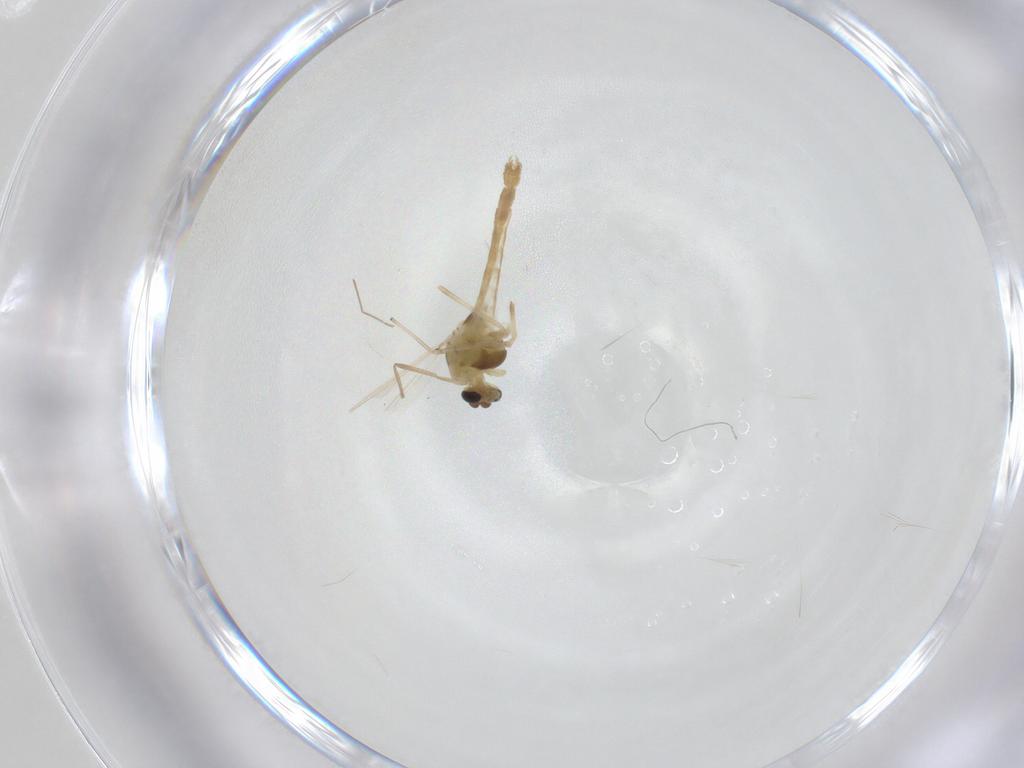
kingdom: Animalia
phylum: Arthropoda
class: Insecta
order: Diptera
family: Chironomidae
